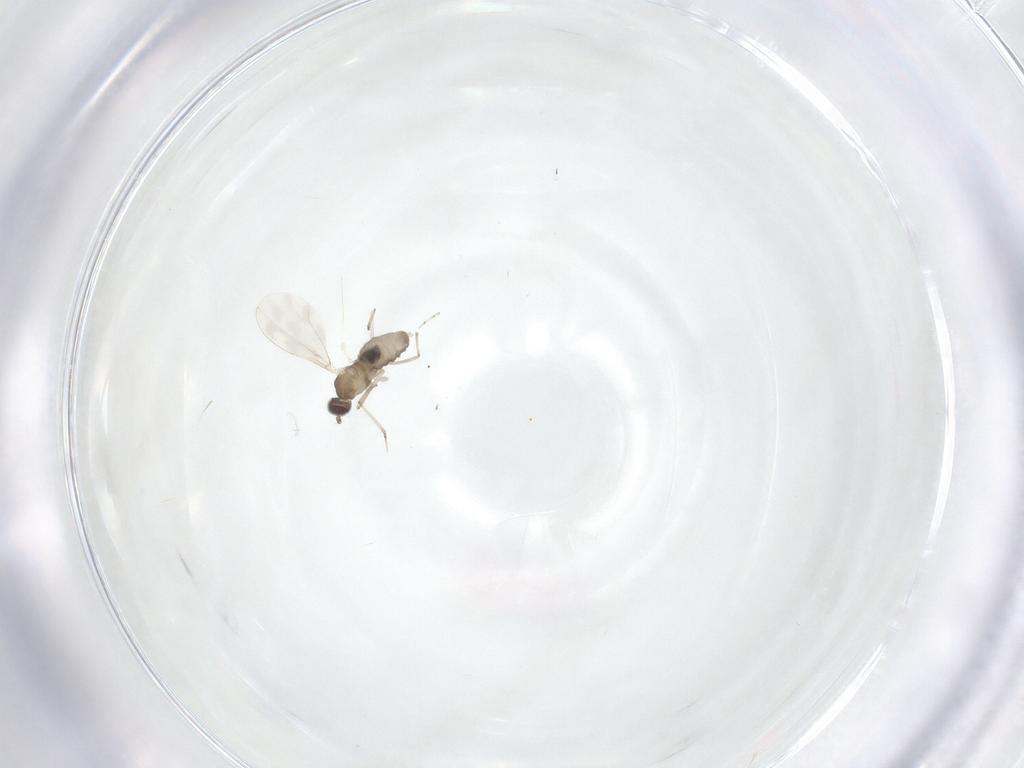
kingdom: Animalia
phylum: Arthropoda
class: Insecta
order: Diptera
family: Cecidomyiidae
